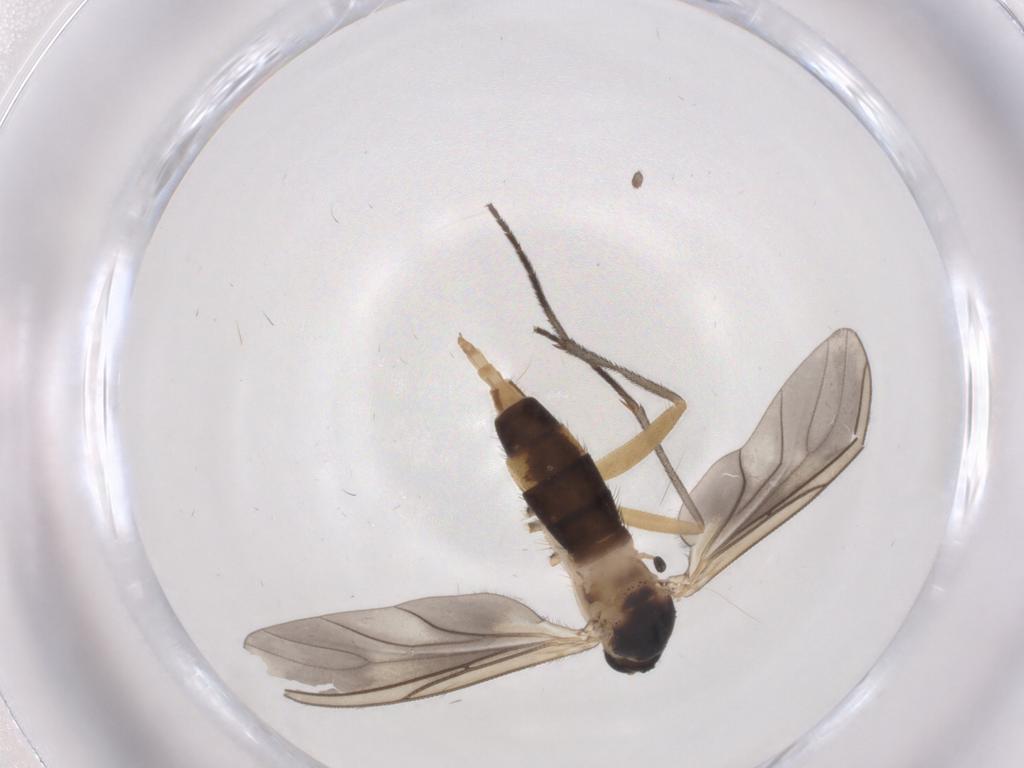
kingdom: Animalia
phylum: Arthropoda
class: Insecta
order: Diptera
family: Sciaridae
